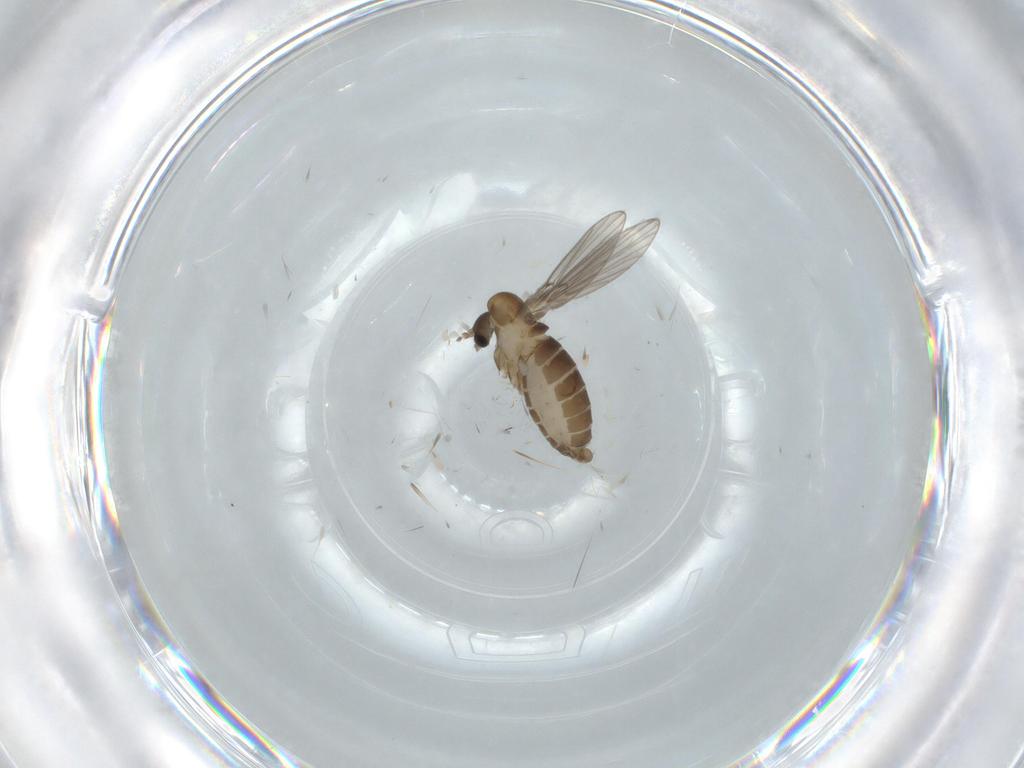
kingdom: Animalia
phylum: Arthropoda
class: Insecta
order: Diptera
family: Psychodidae
